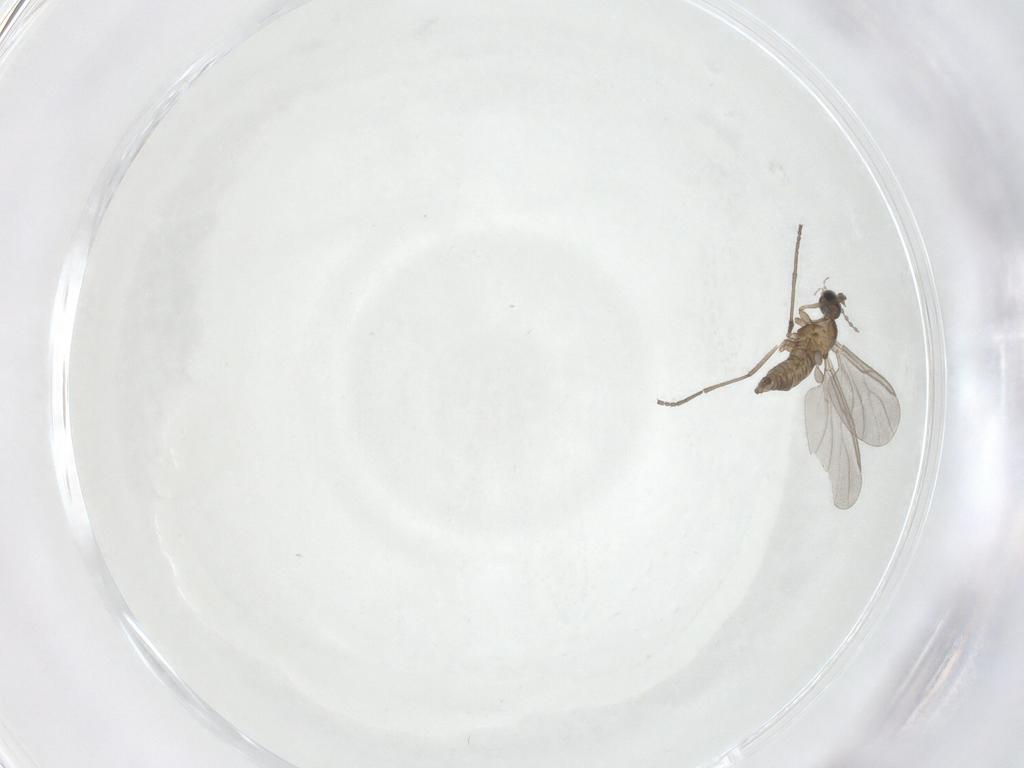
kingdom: Animalia
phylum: Arthropoda
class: Insecta
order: Diptera
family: Cecidomyiidae
